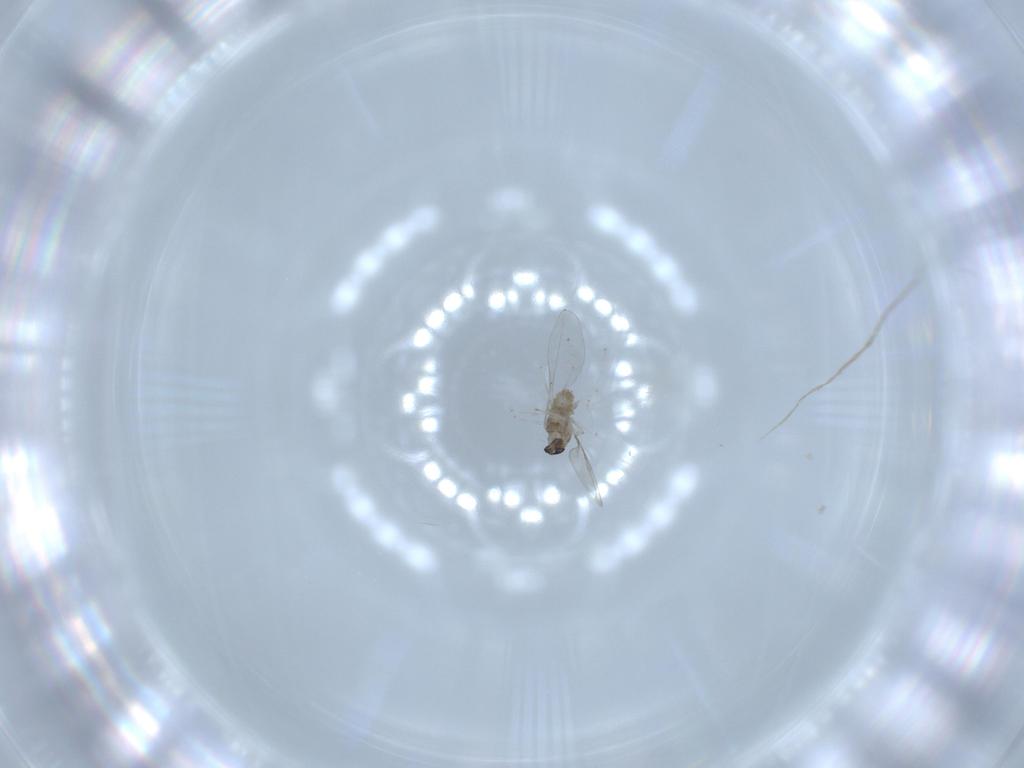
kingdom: Animalia
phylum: Arthropoda
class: Insecta
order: Diptera
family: Cecidomyiidae
